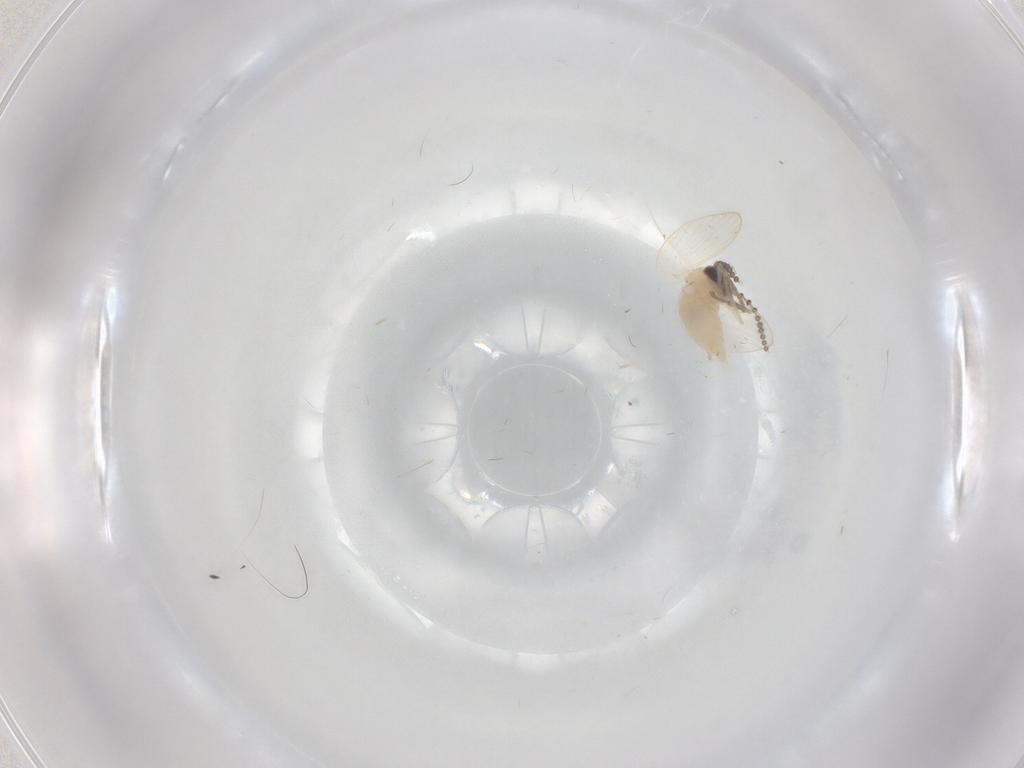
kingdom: Animalia
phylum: Arthropoda
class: Insecta
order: Diptera
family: Psychodidae
